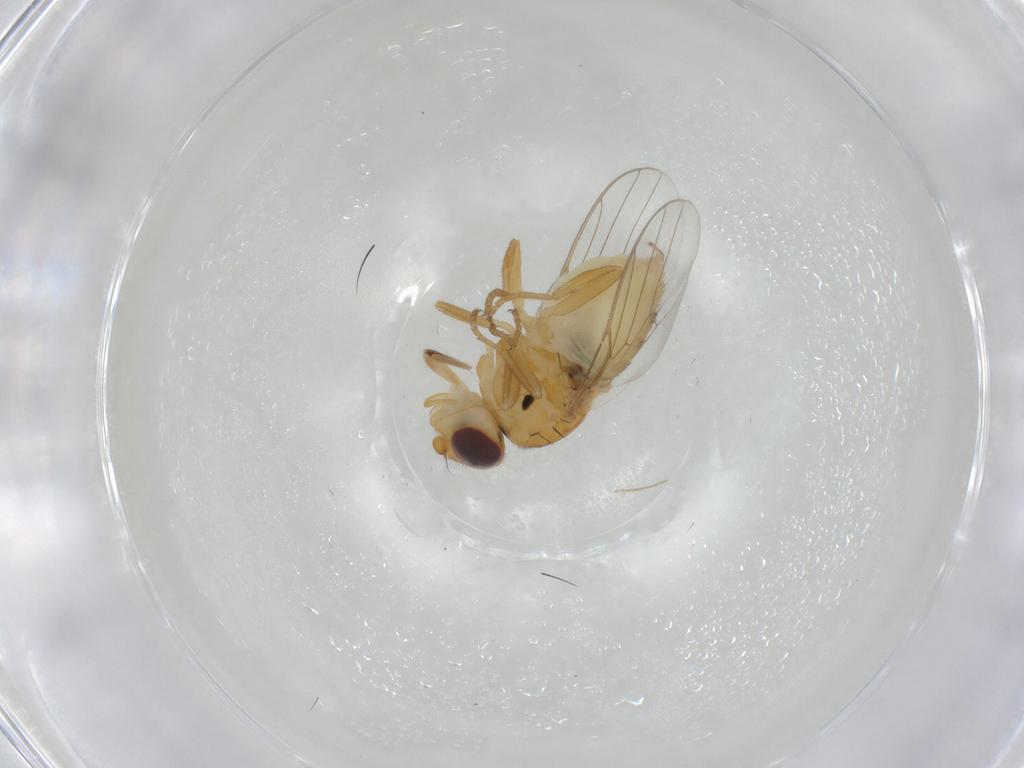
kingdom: Animalia
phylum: Arthropoda
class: Insecta
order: Diptera
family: Chloropidae
